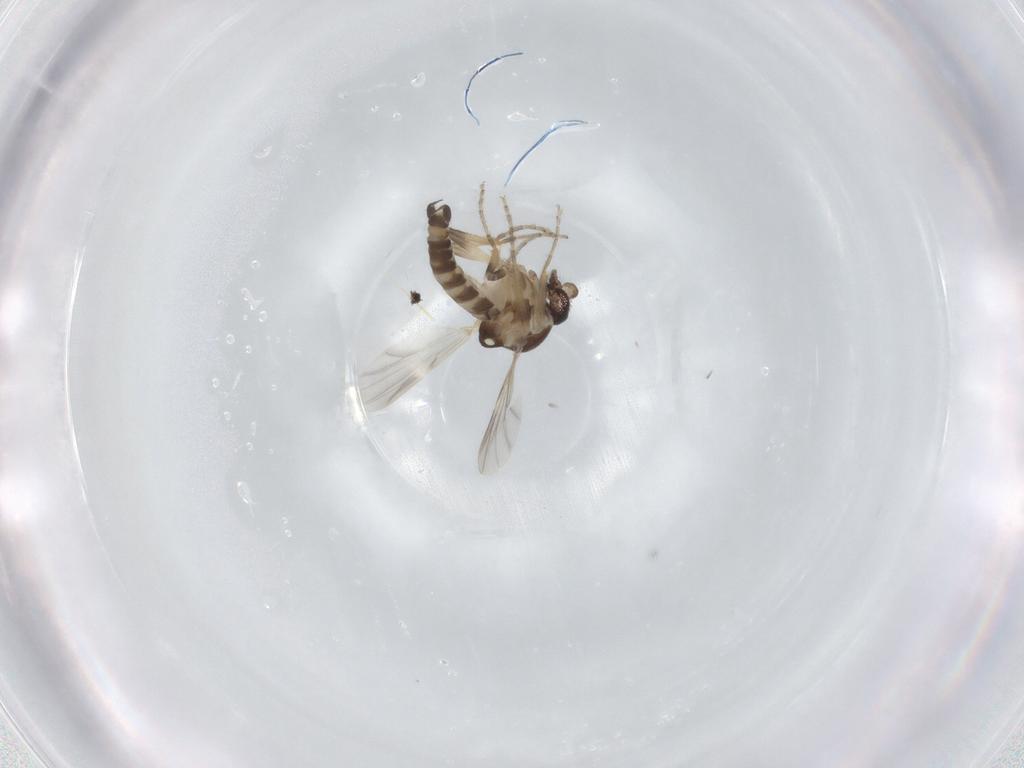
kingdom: Animalia
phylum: Arthropoda
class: Insecta
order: Diptera
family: Ceratopogonidae
